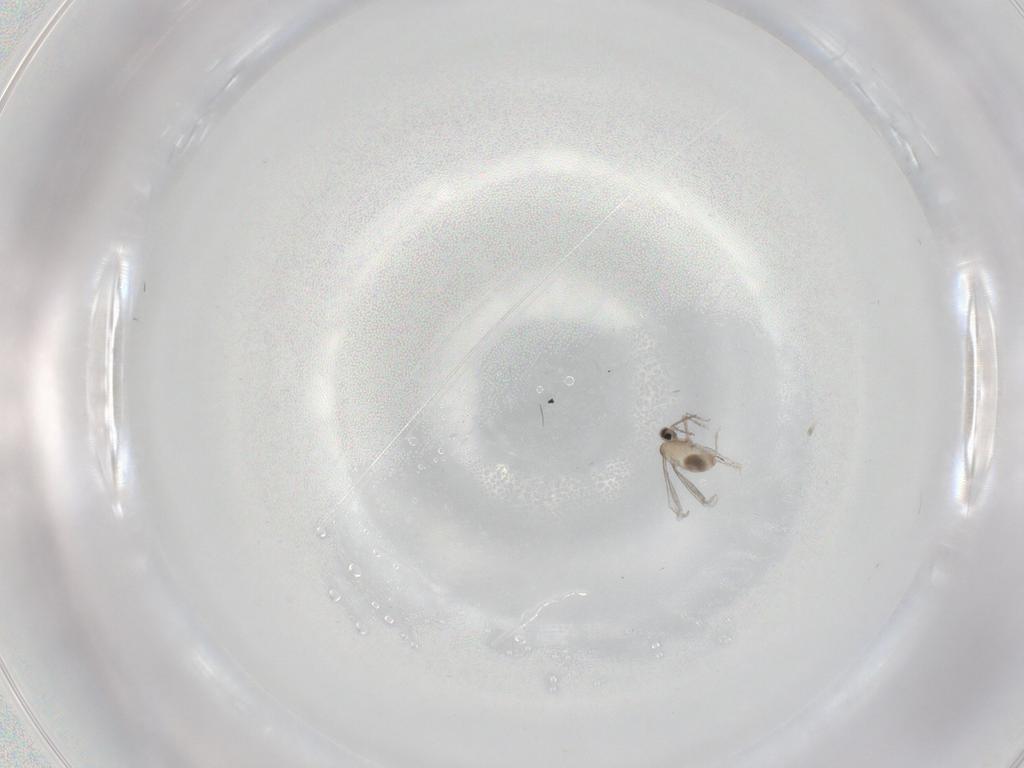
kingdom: Animalia
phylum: Arthropoda
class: Insecta
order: Diptera
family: Cecidomyiidae
